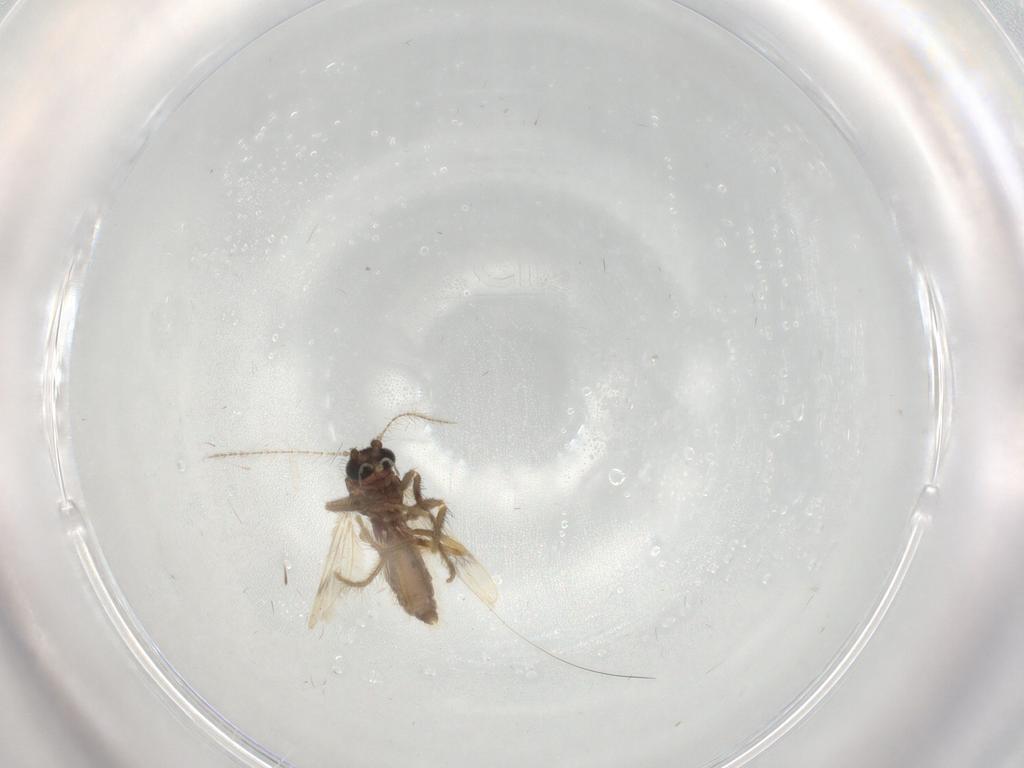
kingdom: Animalia
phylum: Arthropoda
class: Insecta
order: Diptera
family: Corethrellidae
